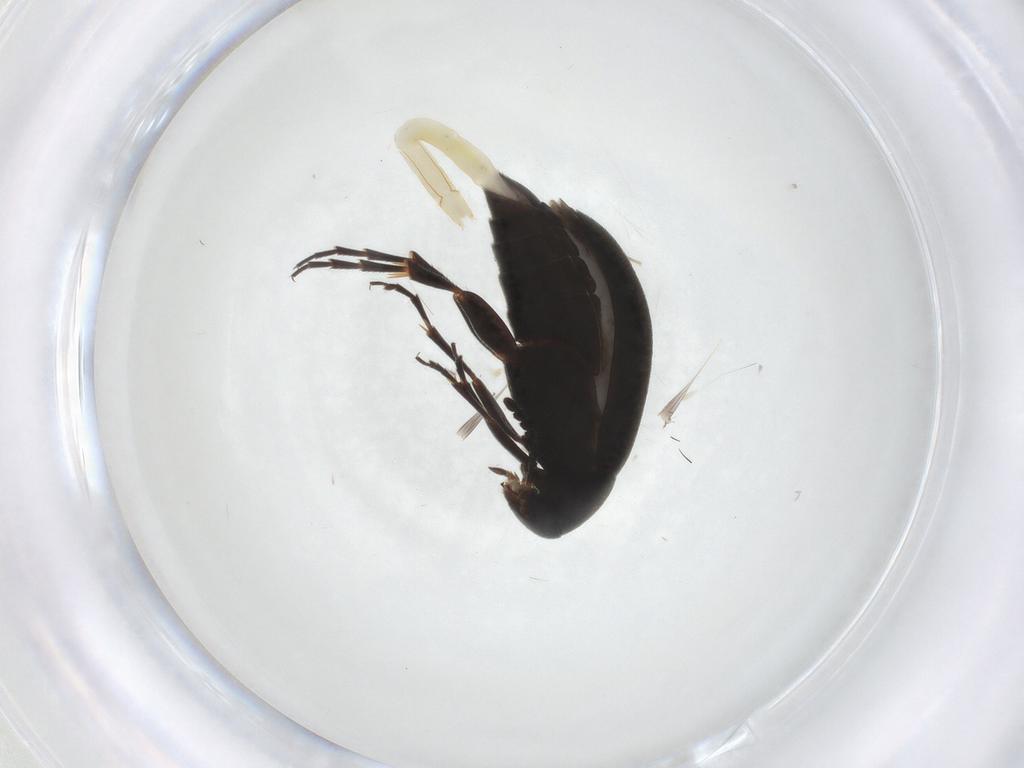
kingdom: Animalia
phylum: Arthropoda
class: Insecta
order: Coleoptera
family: Scraptiidae
